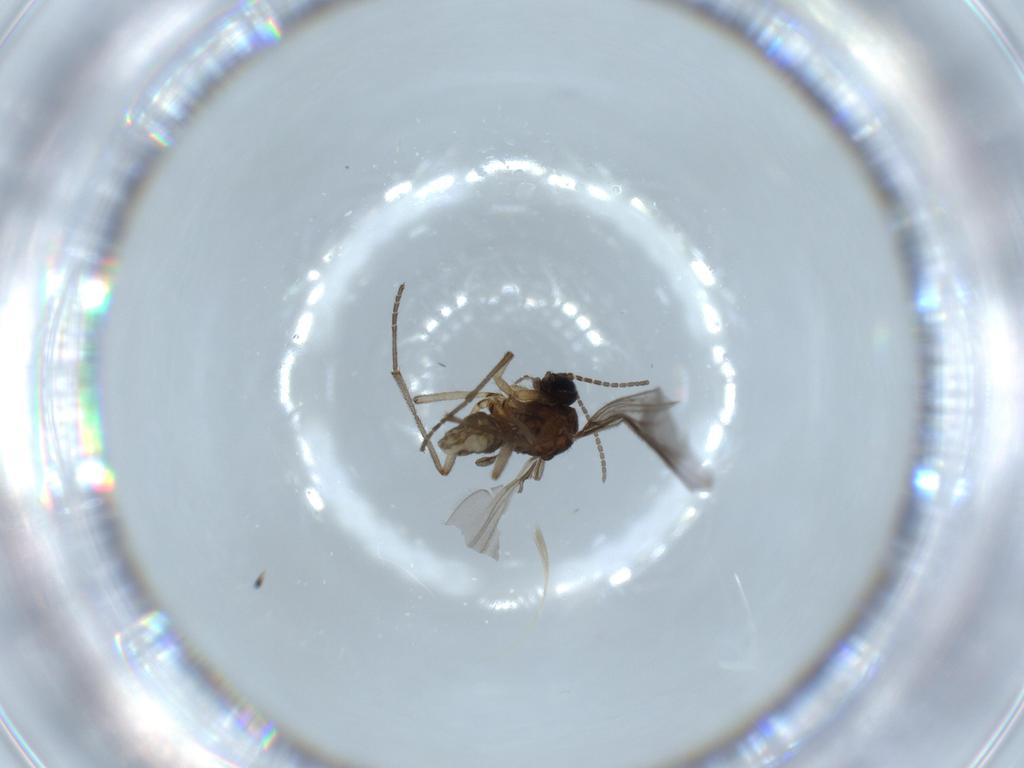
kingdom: Animalia
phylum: Arthropoda
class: Insecta
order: Diptera
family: Sciaridae
